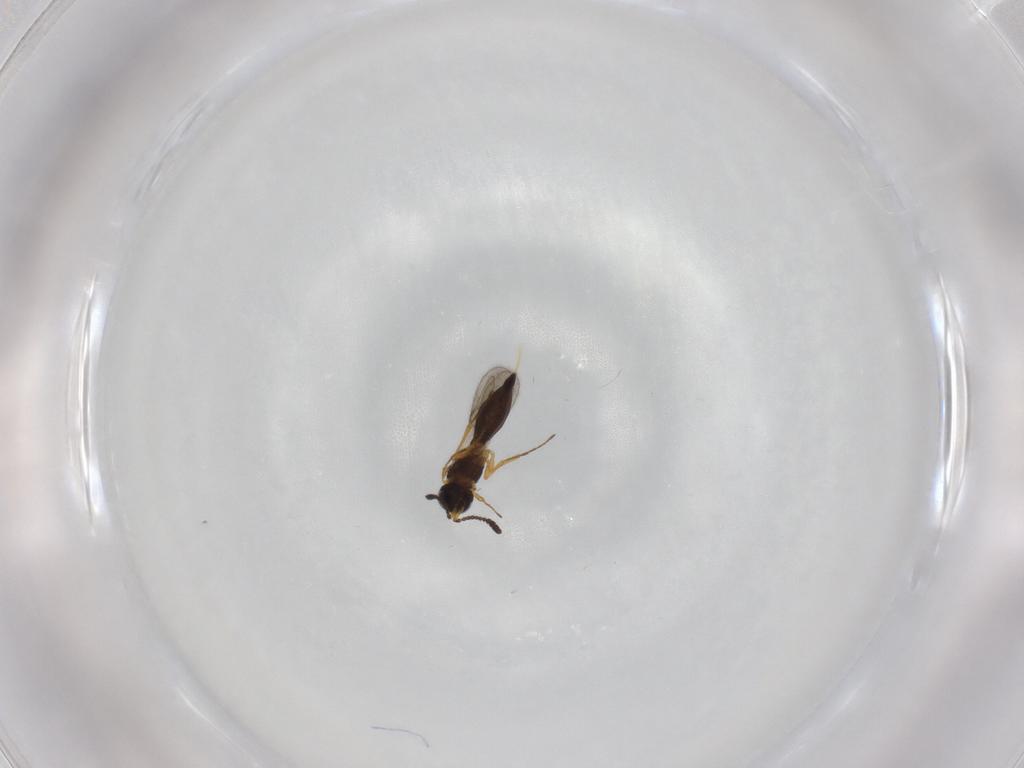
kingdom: Animalia
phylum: Arthropoda
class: Insecta
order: Hymenoptera
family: Scelionidae
